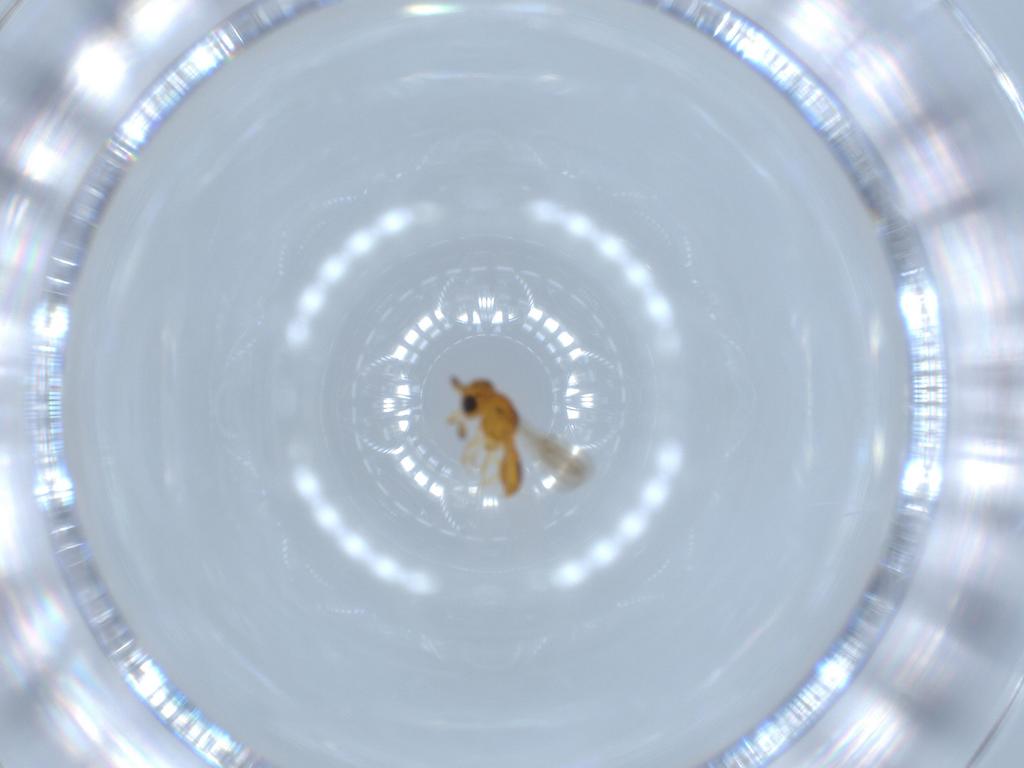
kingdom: Animalia
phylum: Arthropoda
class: Insecta
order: Hymenoptera
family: Scelionidae
